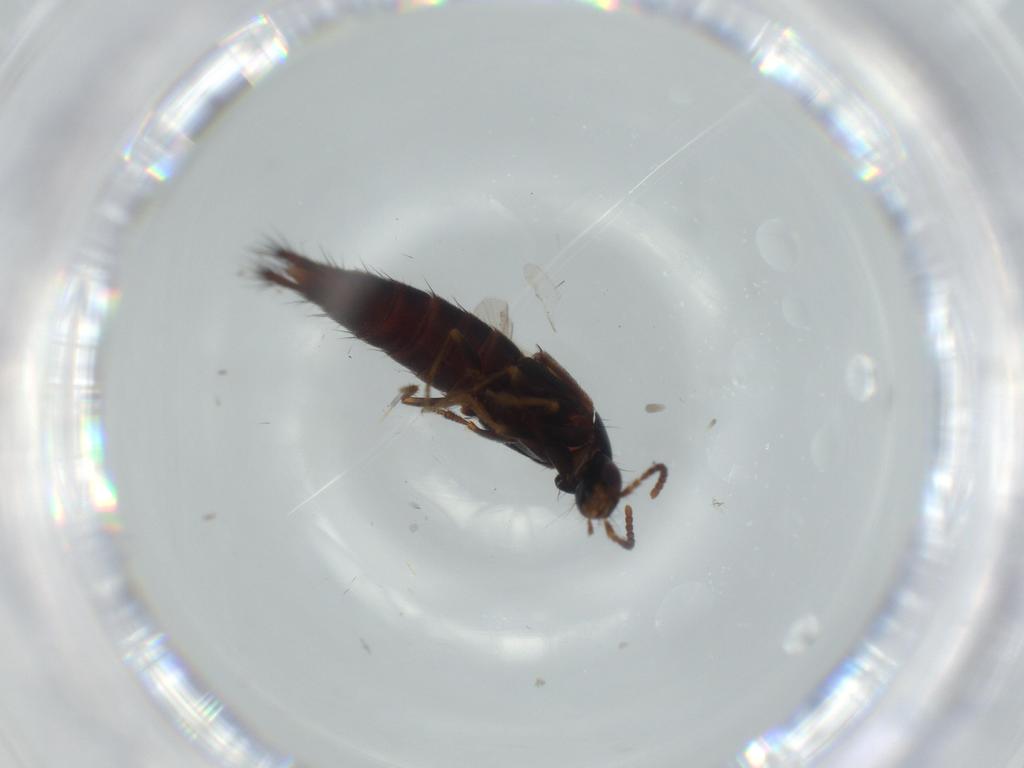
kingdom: Animalia
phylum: Arthropoda
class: Insecta
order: Coleoptera
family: Staphylinidae
